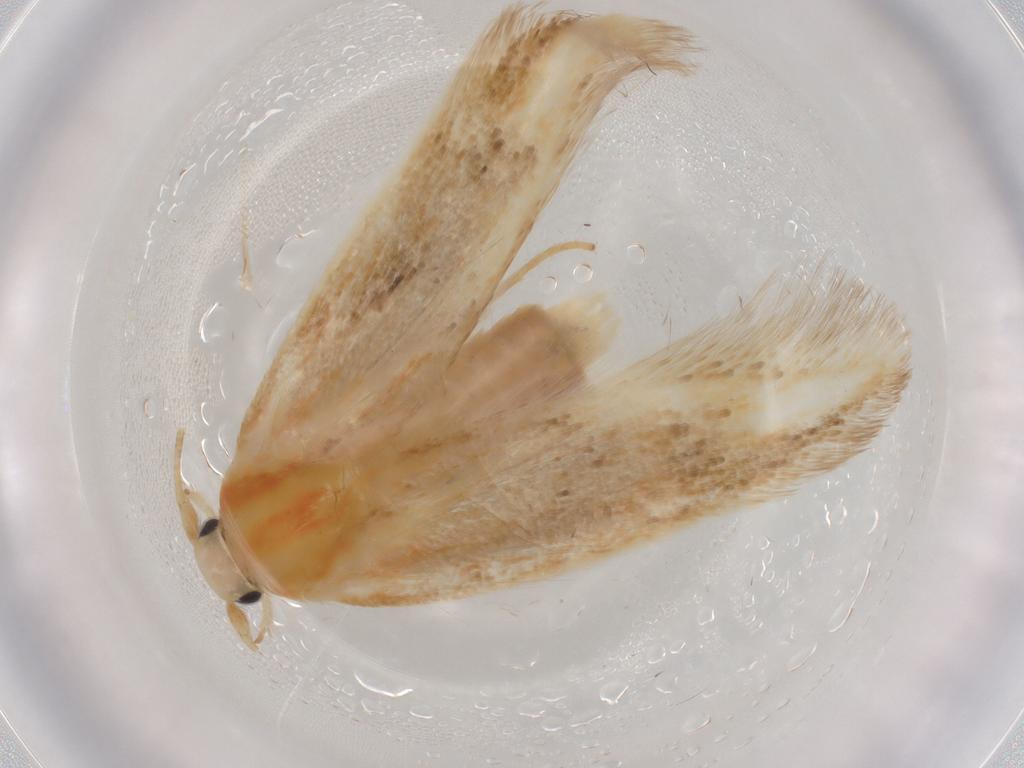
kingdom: Animalia
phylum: Arthropoda
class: Insecta
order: Lepidoptera
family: Geometridae
